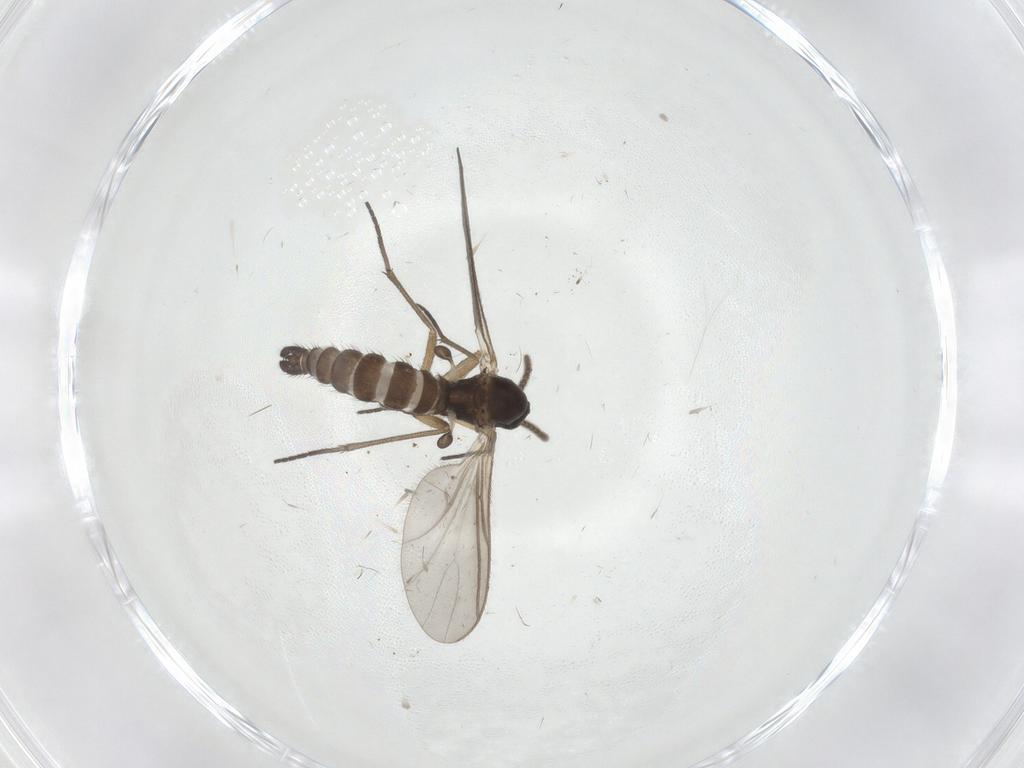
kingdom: Animalia
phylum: Arthropoda
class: Insecta
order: Diptera
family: Sciaridae
